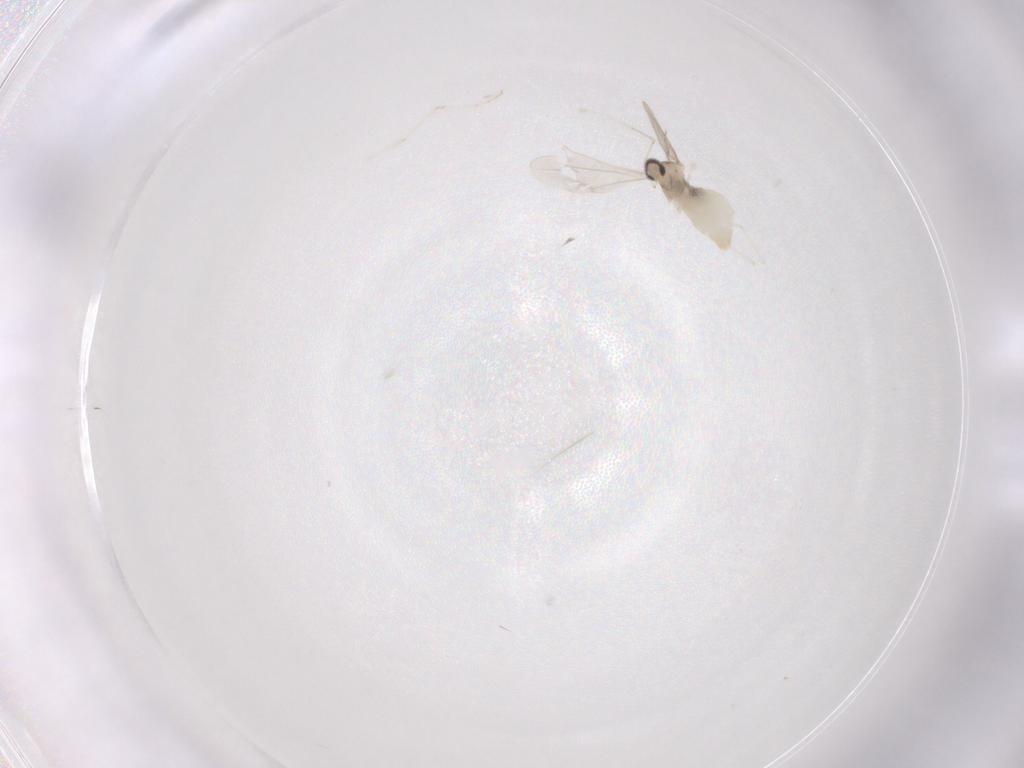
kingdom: Animalia
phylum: Arthropoda
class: Insecta
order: Diptera
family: Cecidomyiidae
